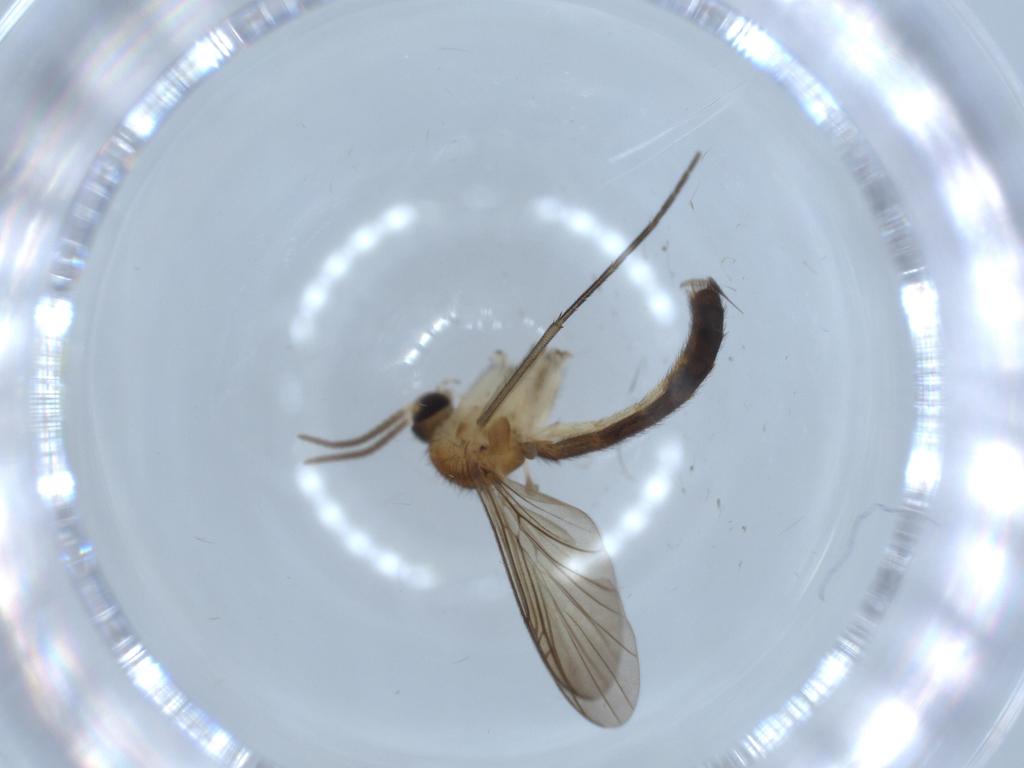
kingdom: Animalia
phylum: Arthropoda
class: Insecta
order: Diptera
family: Keroplatidae
